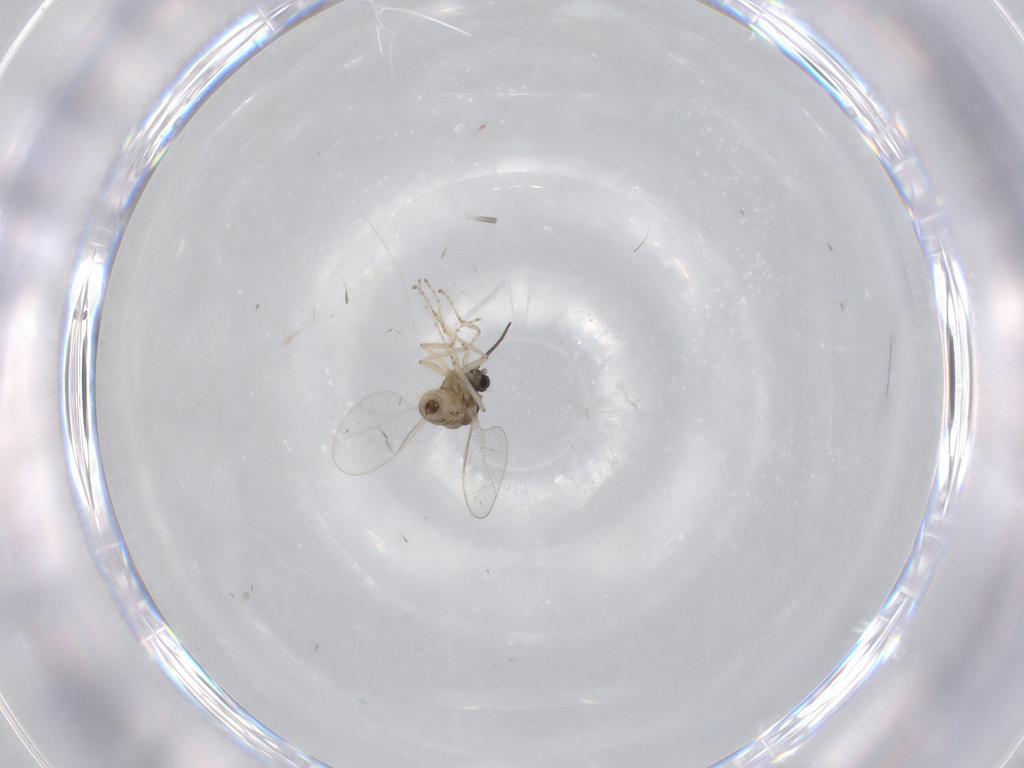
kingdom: Animalia
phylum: Arthropoda
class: Insecta
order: Diptera
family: Cecidomyiidae
